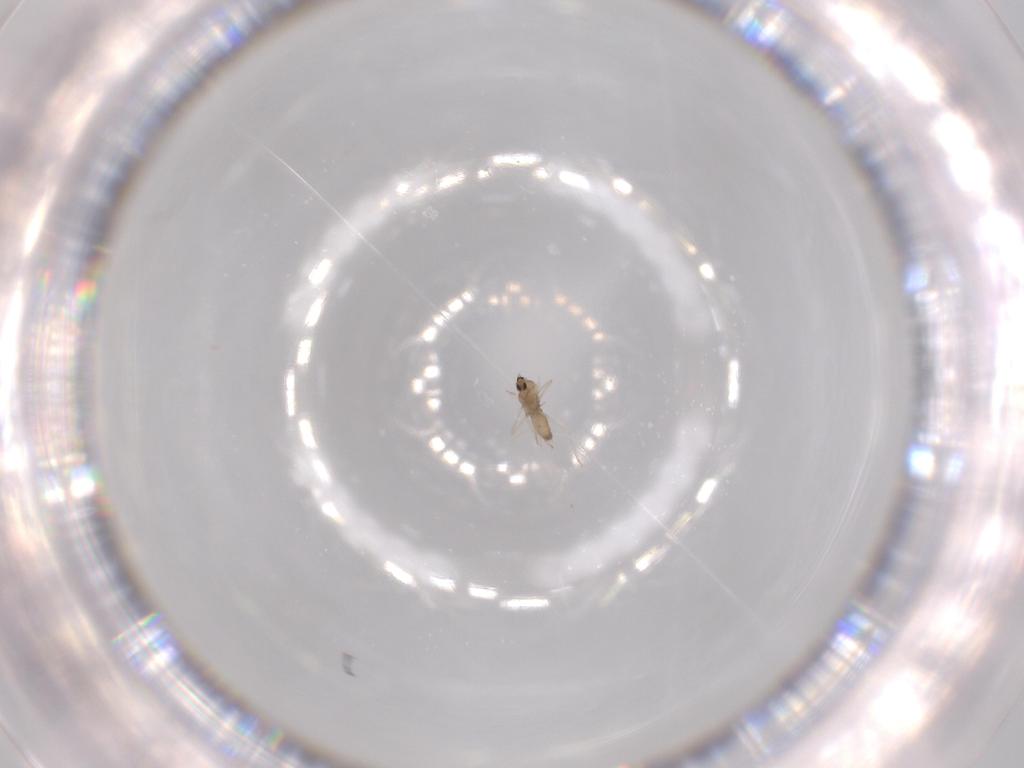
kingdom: Animalia
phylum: Arthropoda
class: Insecta
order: Diptera
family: Cecidomyiidae
